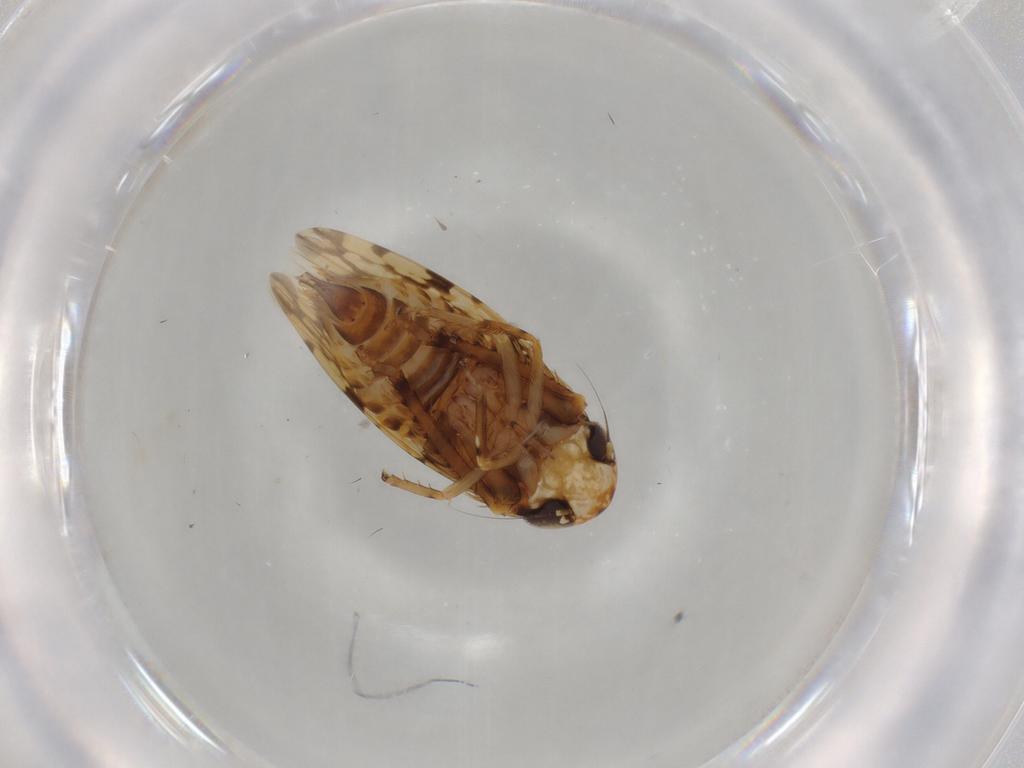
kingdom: Animalia
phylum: Arthropoda
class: Insecta
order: Hemiptera
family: Cicadellidae
